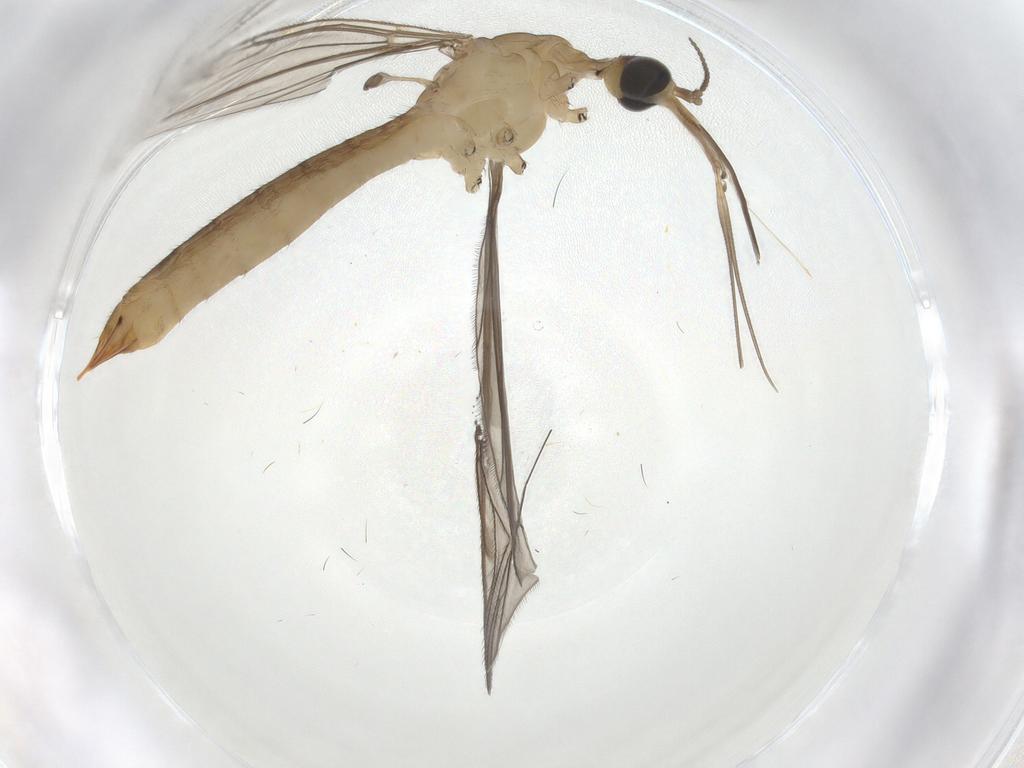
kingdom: Animalia
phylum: Arthropoda
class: Insecta
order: Diptera
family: Limoniidae
